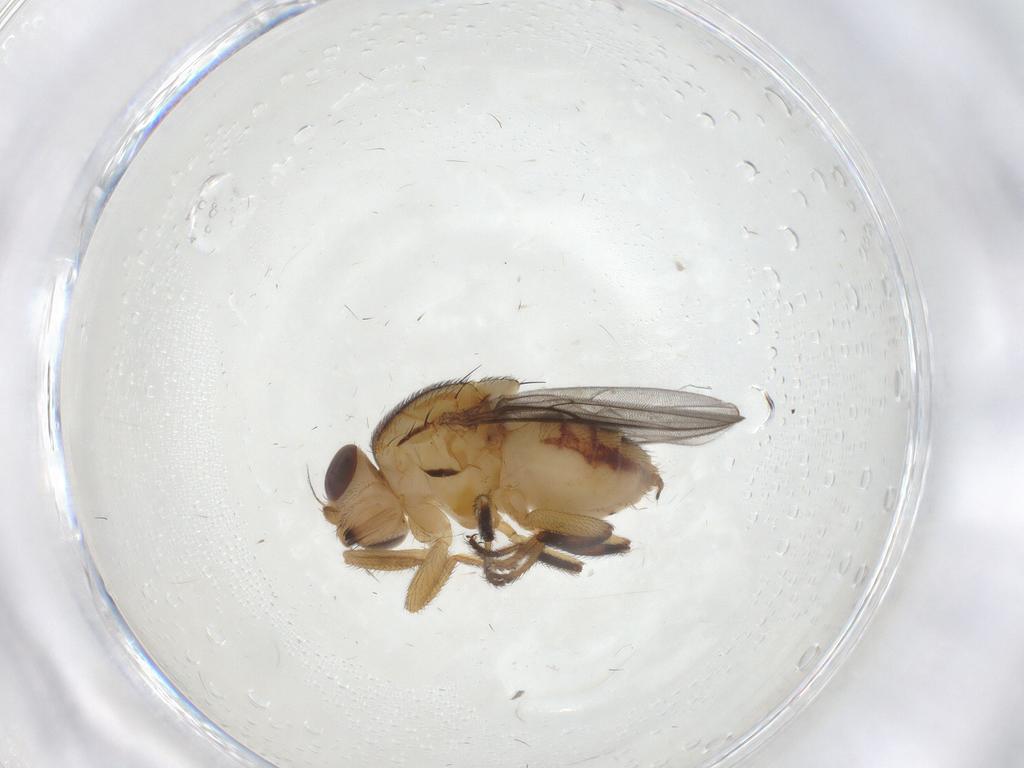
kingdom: Animalia
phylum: Arthropoda
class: Insecta
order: Diptera
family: Chloropidae
